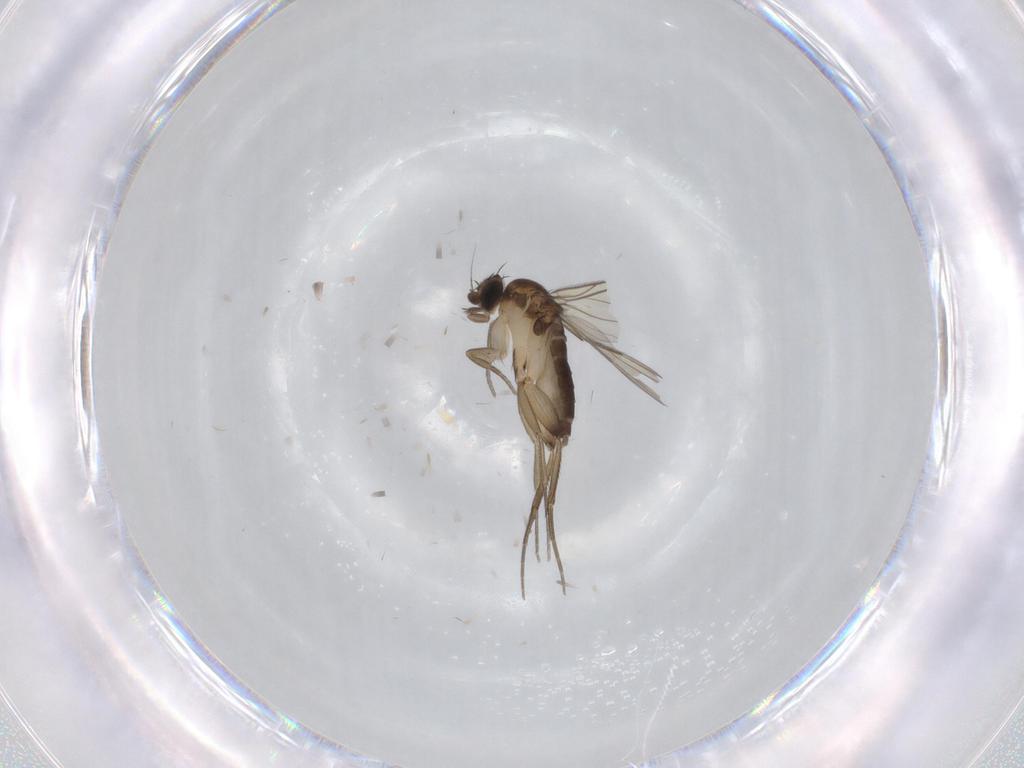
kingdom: Animalia
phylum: Arthropoda
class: Insecta
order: Diptera
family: Phoridae
